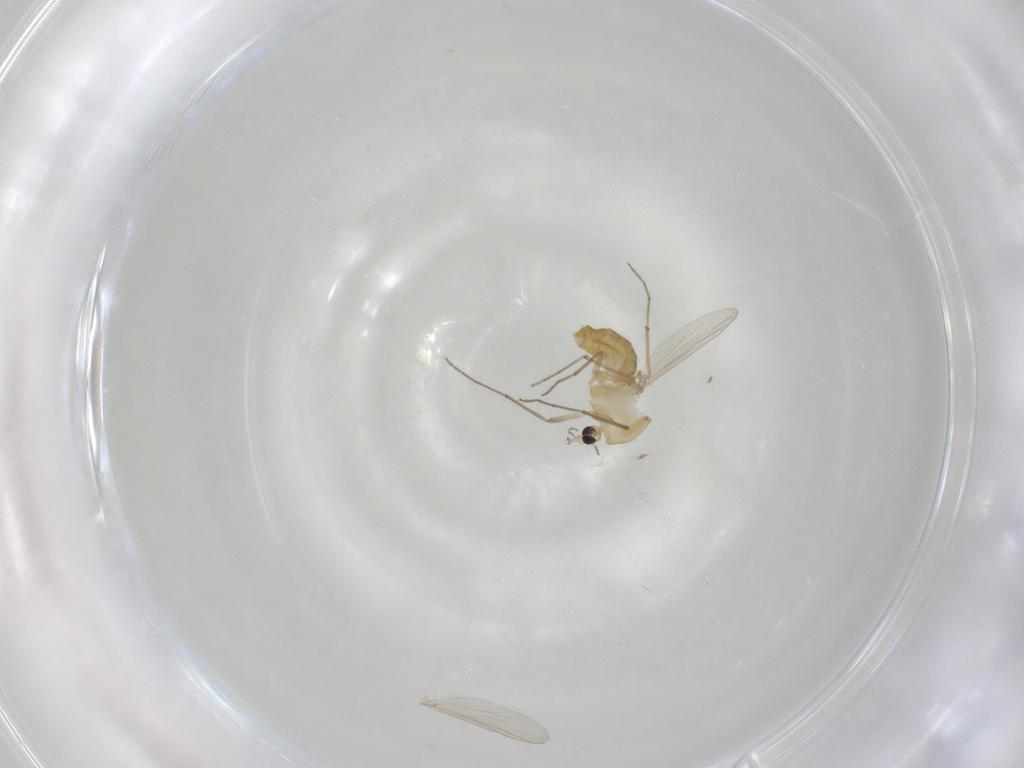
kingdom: Animalia
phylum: Arthropoda
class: Insecta
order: Diptera
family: Chironomidae
